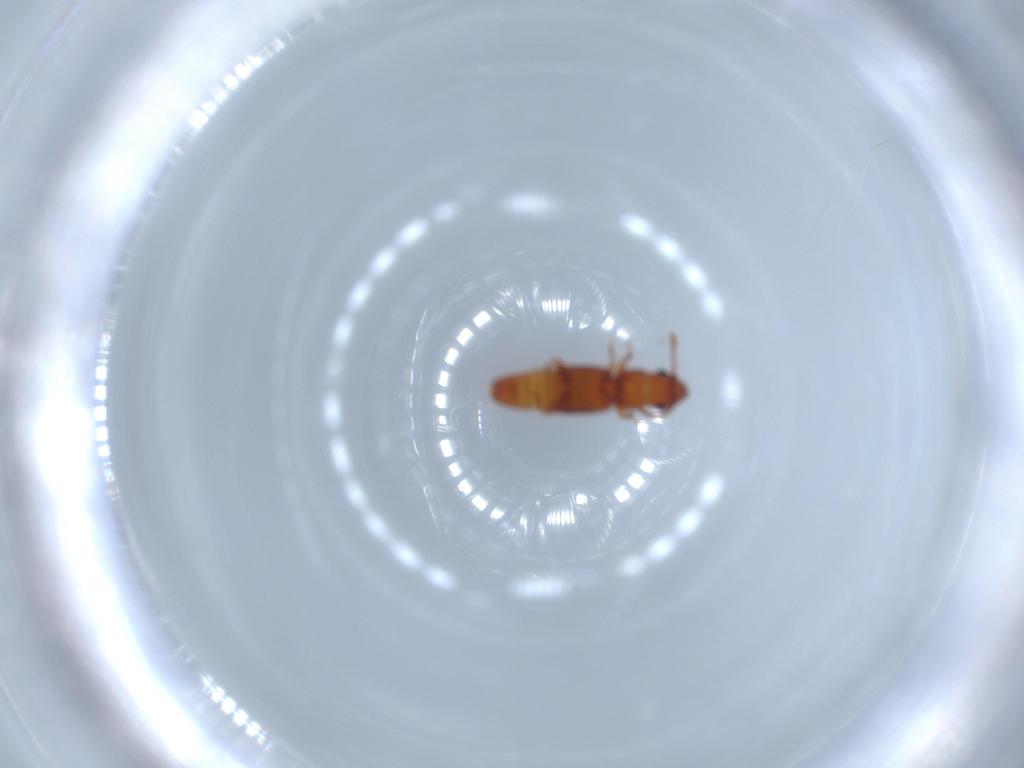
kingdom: Animalia
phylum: Arthropoda
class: Insecta
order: Coleoptera
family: Smicripidae
